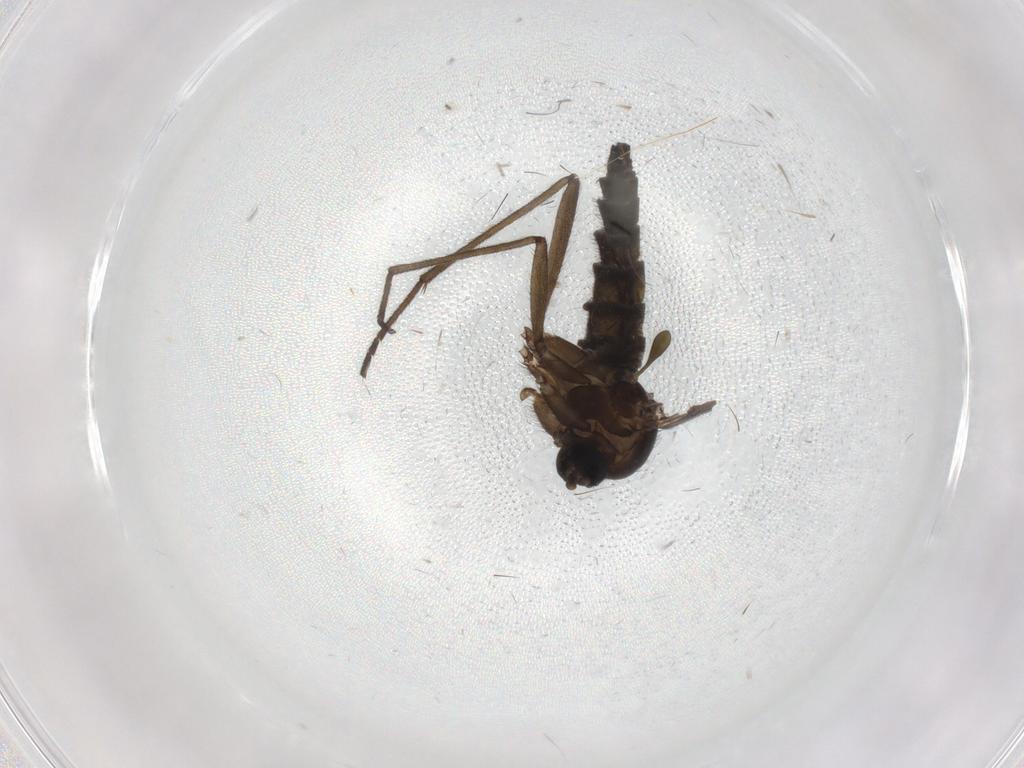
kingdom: Animalia
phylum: Arthropoda
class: Insecta
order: Diptera
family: Sciaridae
